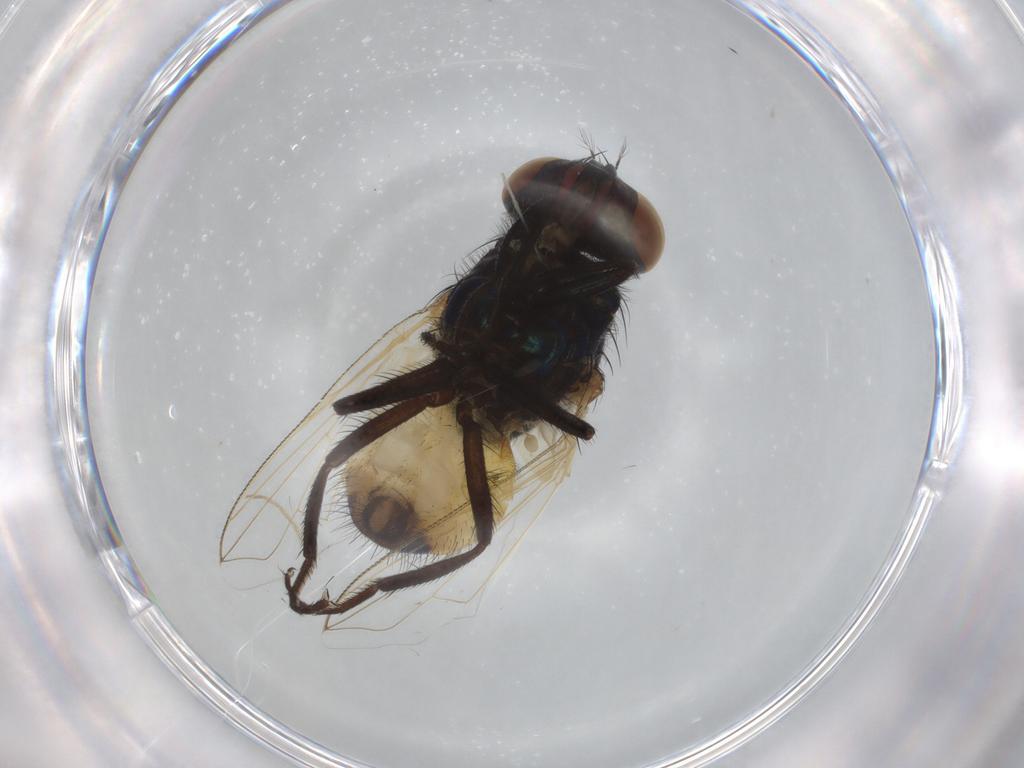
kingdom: Animalia
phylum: Arthropoda
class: Insecta
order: Diptera
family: Muscidae
